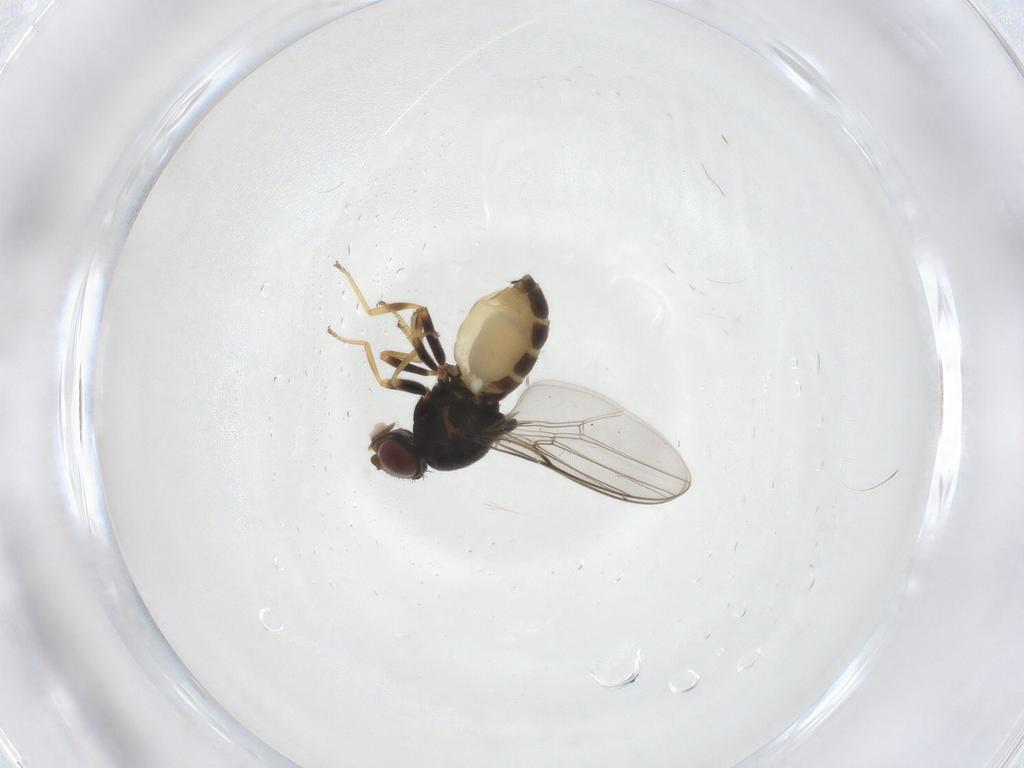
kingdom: Animalia
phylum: Arthropoda
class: Insecta
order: Diptera
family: Chloropidae
